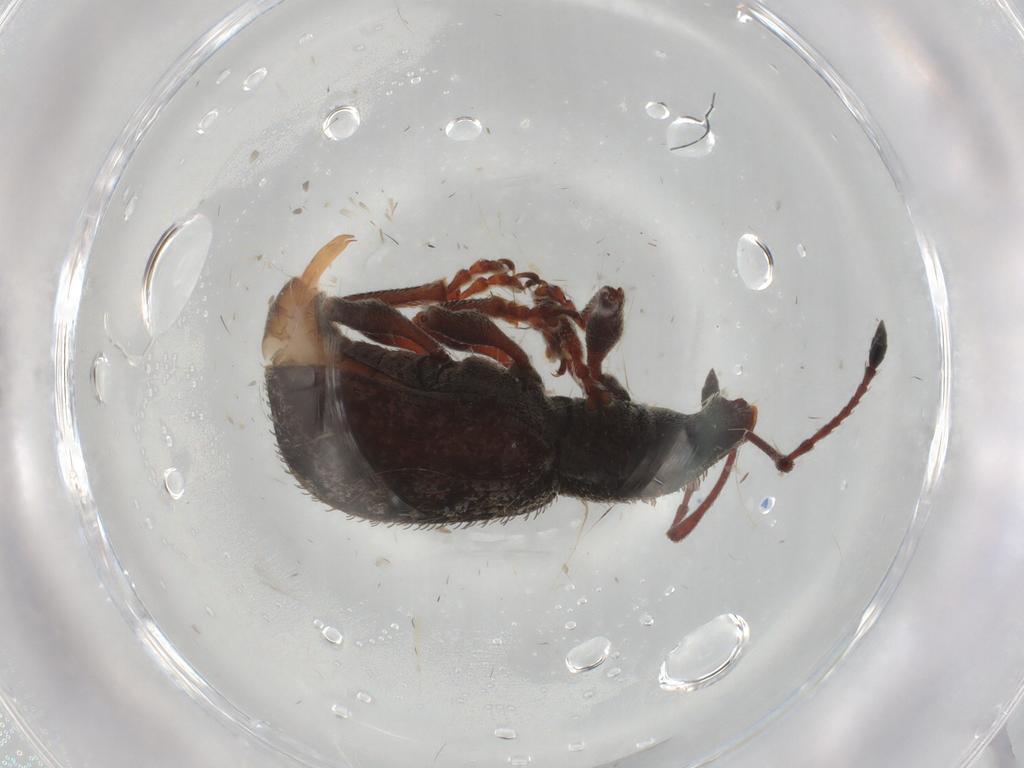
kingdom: Animalia
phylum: Arthropoda
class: Insecta
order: Coleoptera
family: Curculionidae
